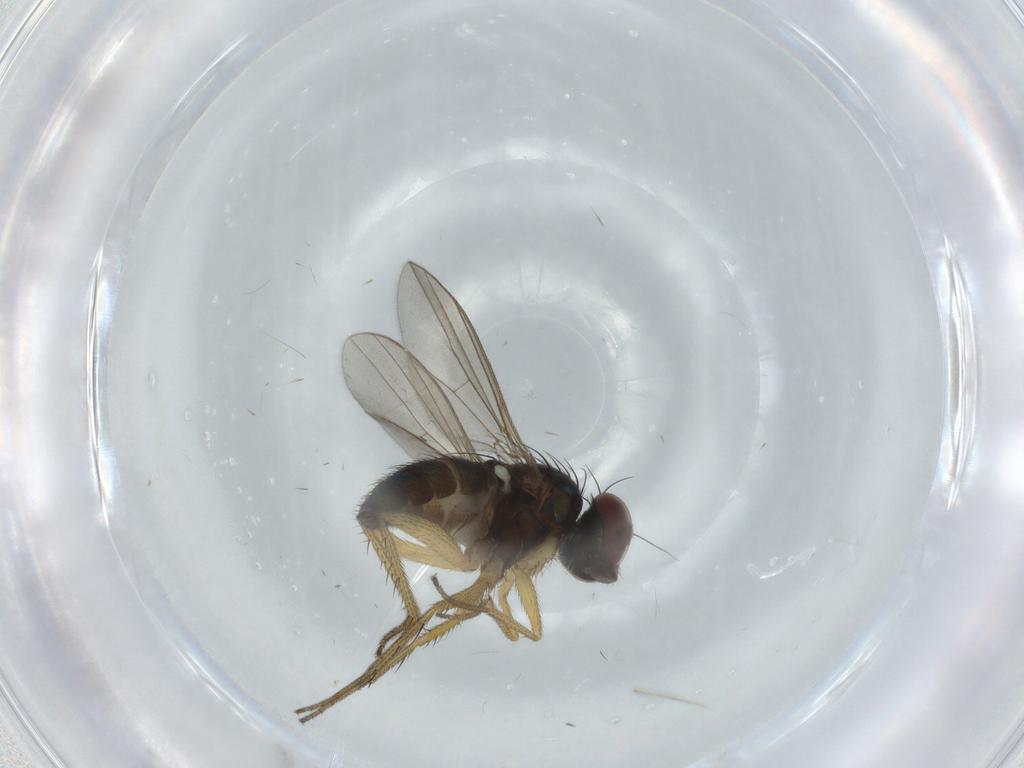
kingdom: Animalia
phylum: Arthropoda
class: Insecta
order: Diptera
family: Dolichopodidae
